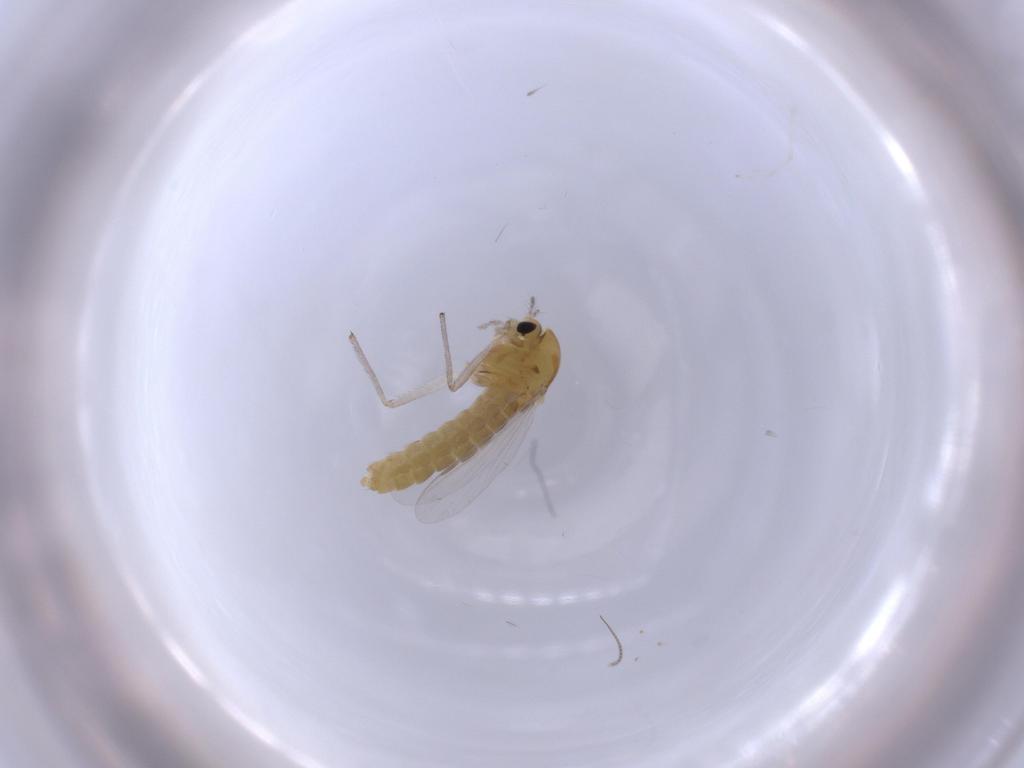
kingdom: Animalia
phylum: Arthropoda
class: Insecta
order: Diptera
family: Chironomidae
